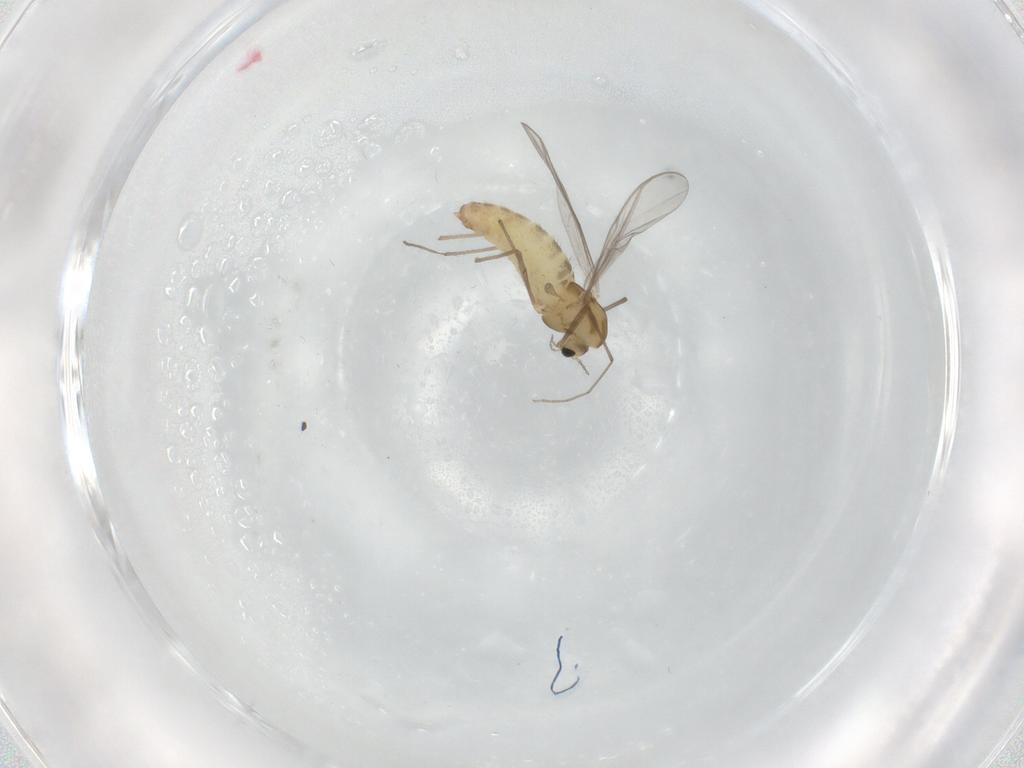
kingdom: Animalia
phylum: Arthropoda
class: Insecta
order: Diptera
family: Chironomidae
